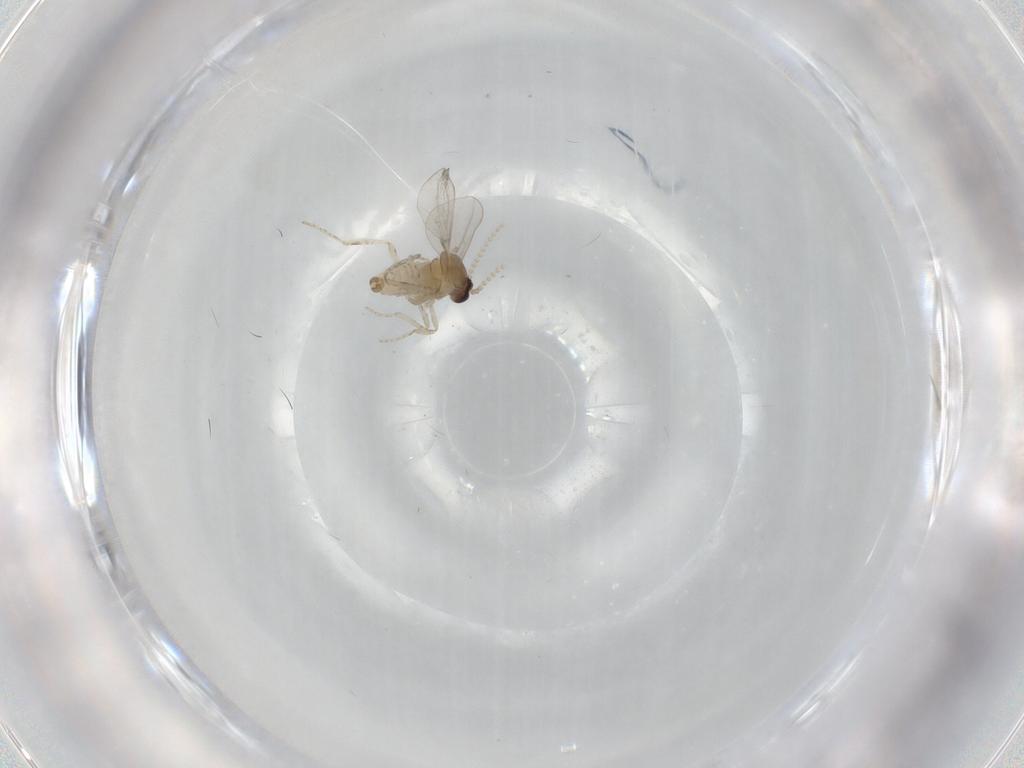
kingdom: Animalia
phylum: Arthropoda
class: Insecta
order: Diptera
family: Cecidomyiidae
